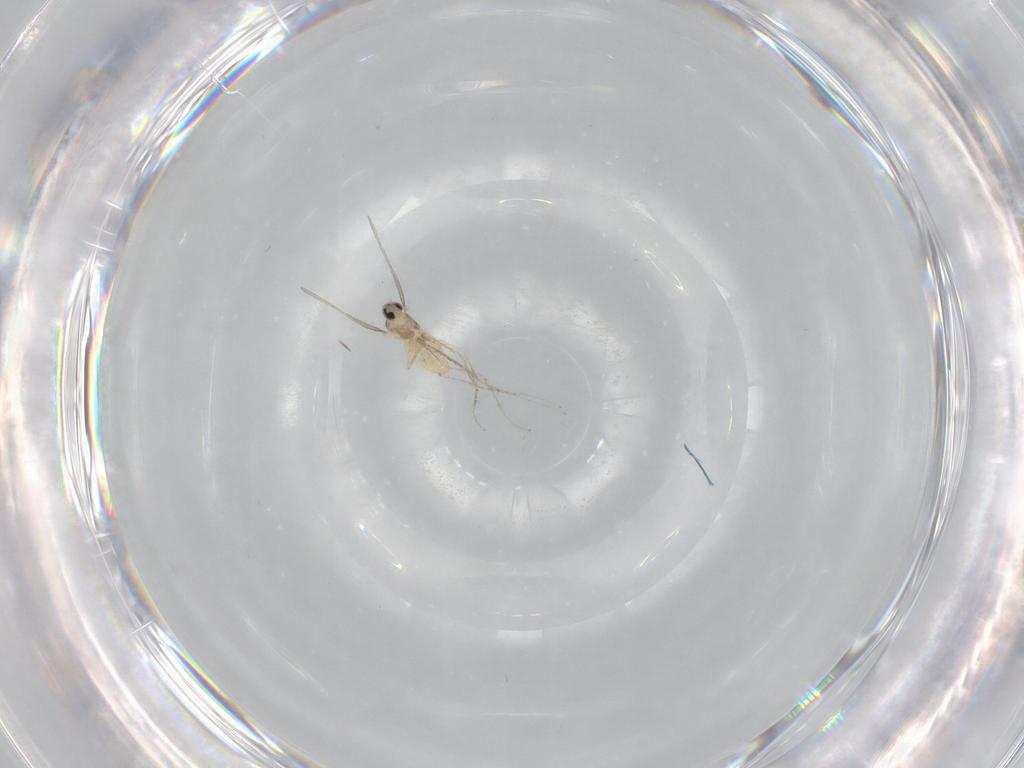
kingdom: Animalia
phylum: Arthropoda
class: Insecta
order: Diptera
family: Cecidomyiidae
